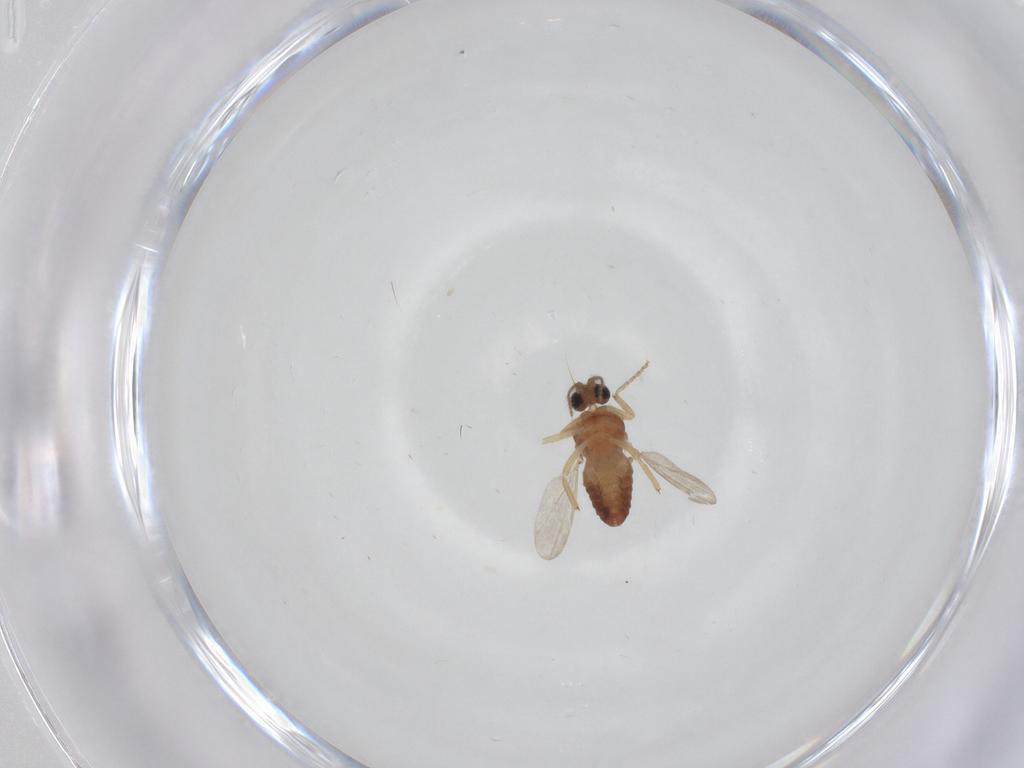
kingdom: Animalia
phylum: Arthropoda
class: Insecta
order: Diptera
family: Ceratopogonidae
